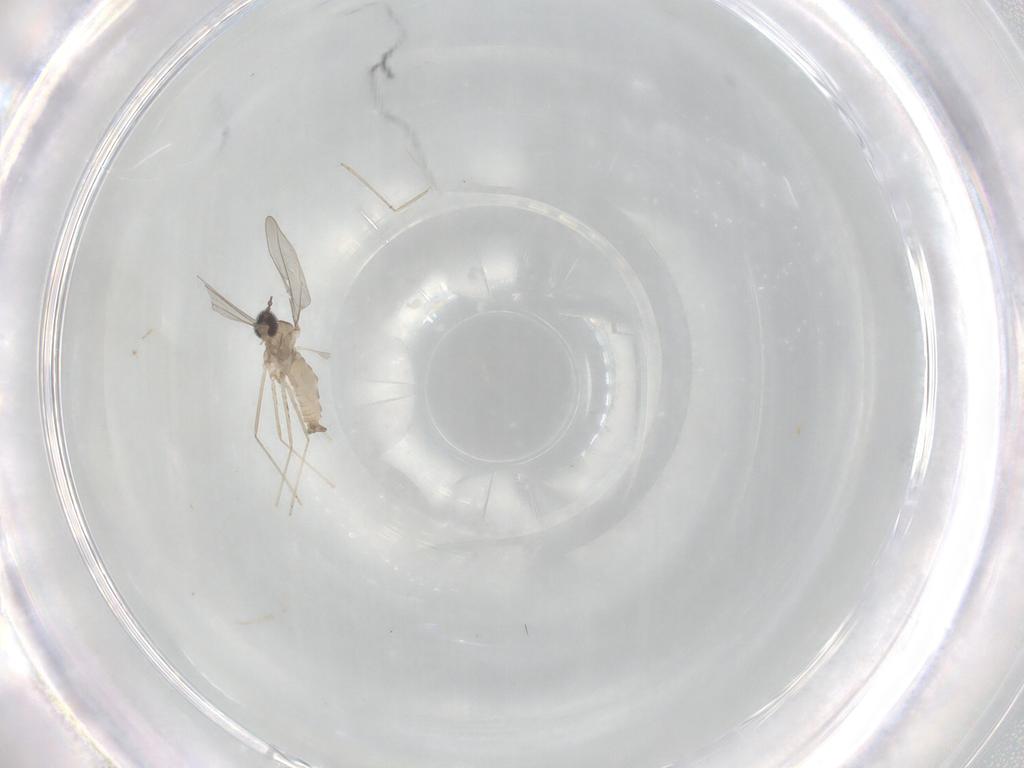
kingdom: Animalia
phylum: Arthropoda
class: Insecta
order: Diptera
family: Cecidomyiidae
